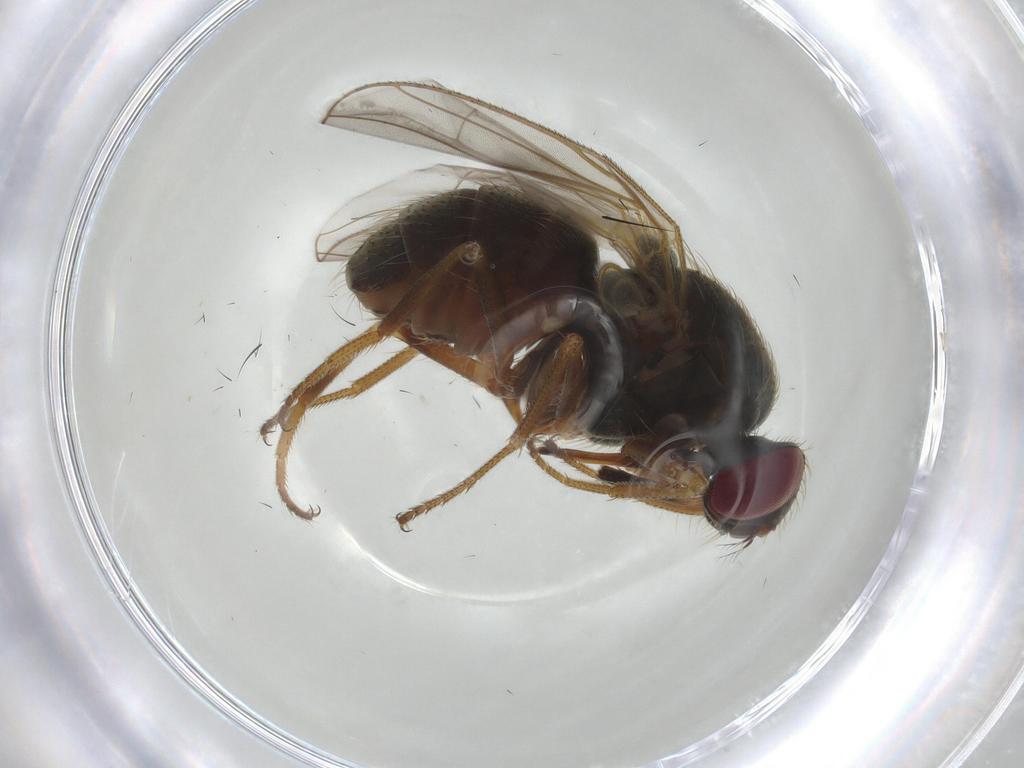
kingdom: Animalia
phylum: Arthropoda
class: Insecta
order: Diptera
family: Muscidae
